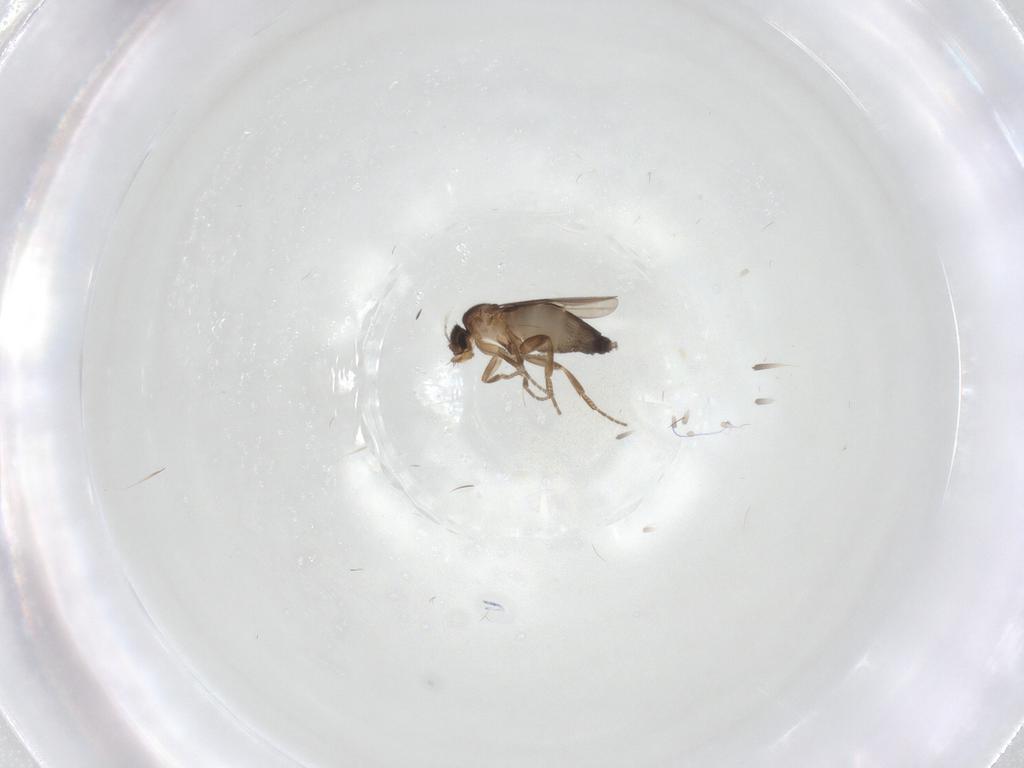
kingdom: Animalia
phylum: Arthropoda
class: Insecta
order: Diptera
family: Phoridae
